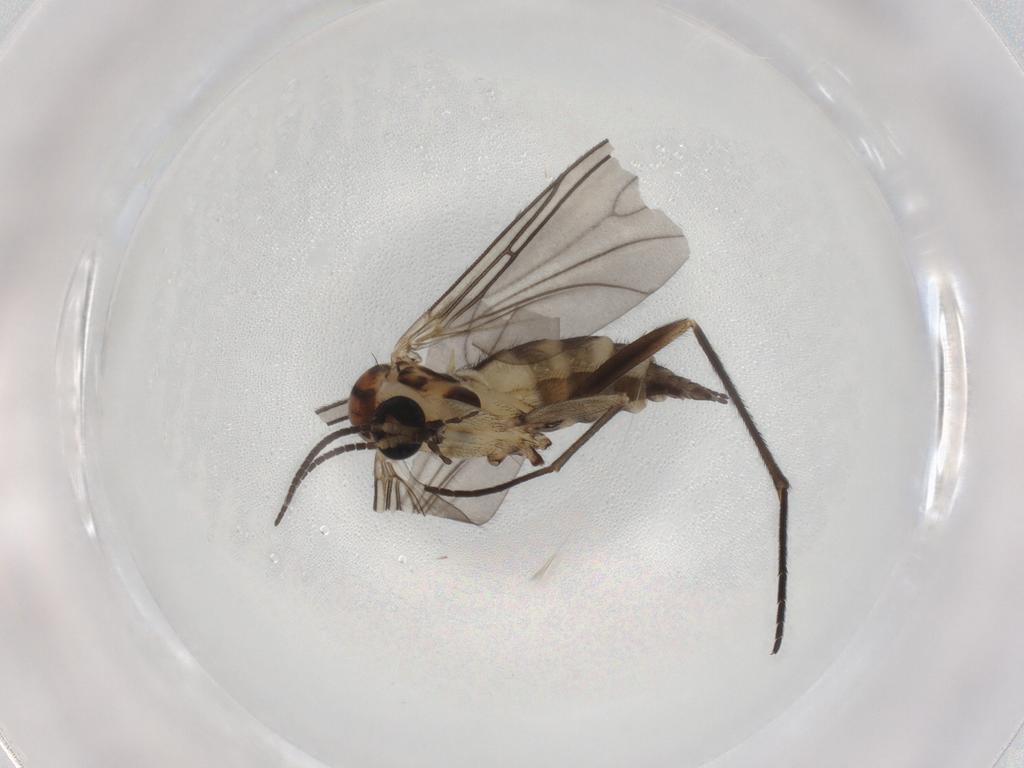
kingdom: Animalia
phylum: Arthropoda
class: Insecta
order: Diptera
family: Sciaridae
